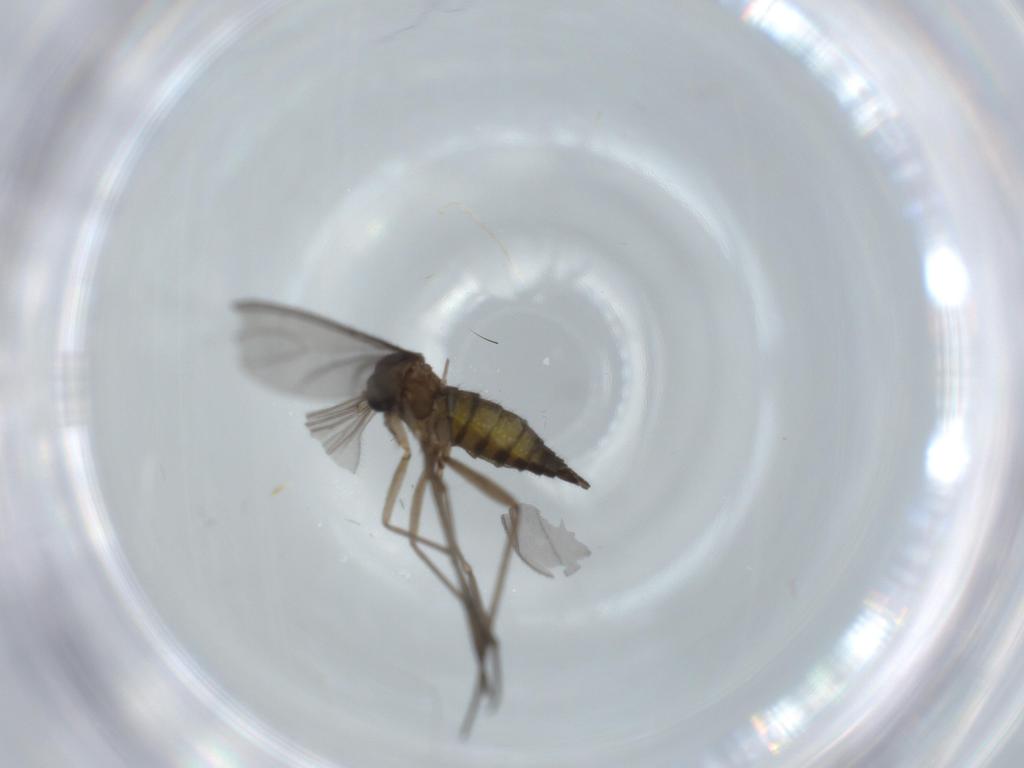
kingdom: Animalia
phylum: Arthropoda
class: Insecta
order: Diptera
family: Sciaridae
